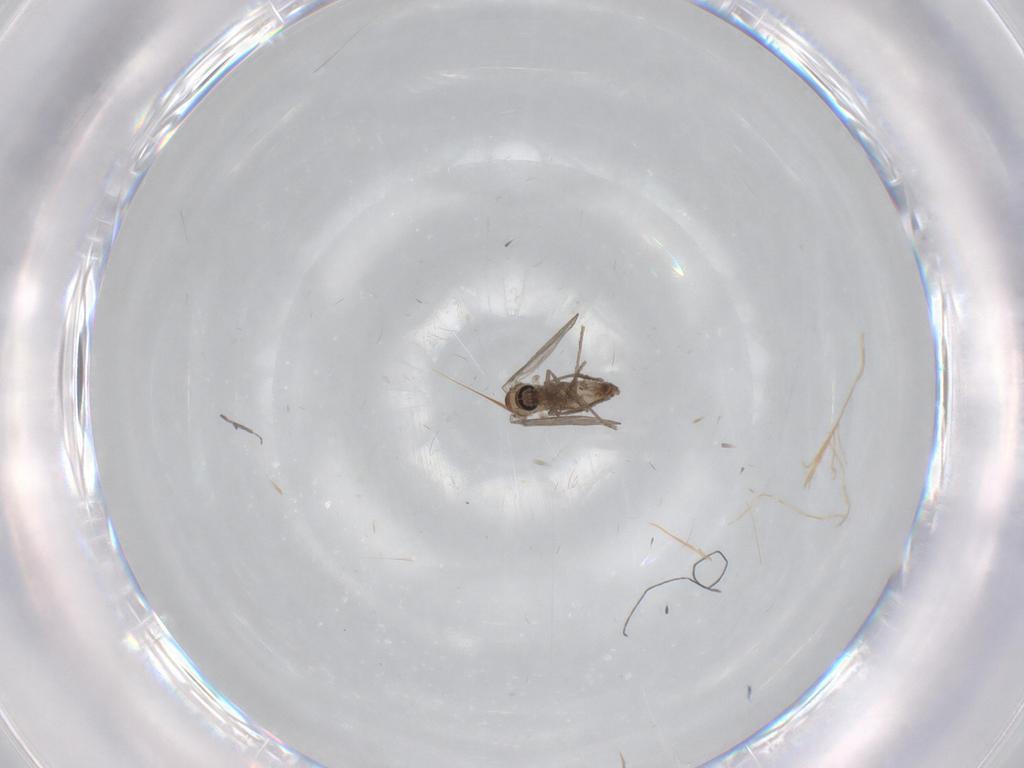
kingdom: Animalia
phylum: Arthropoda
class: Insecta
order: Diptera
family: Psychodidae
